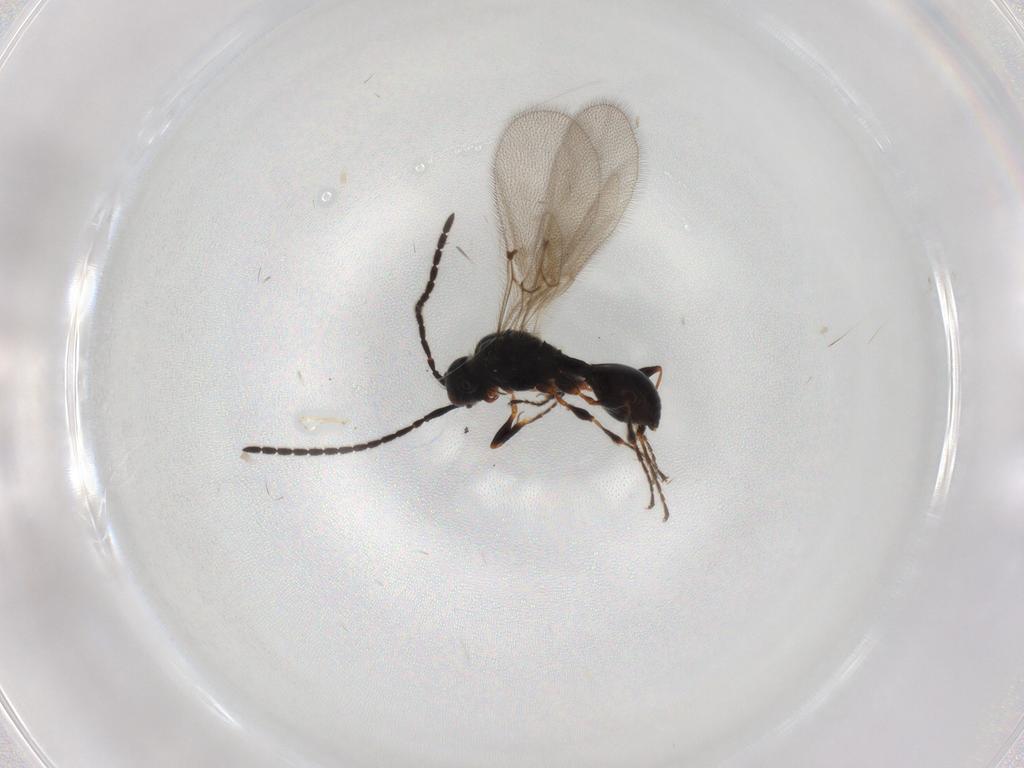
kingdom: Animalia
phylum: Arthropoda
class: Insecta
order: Hymenoptera
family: Diapriidae
